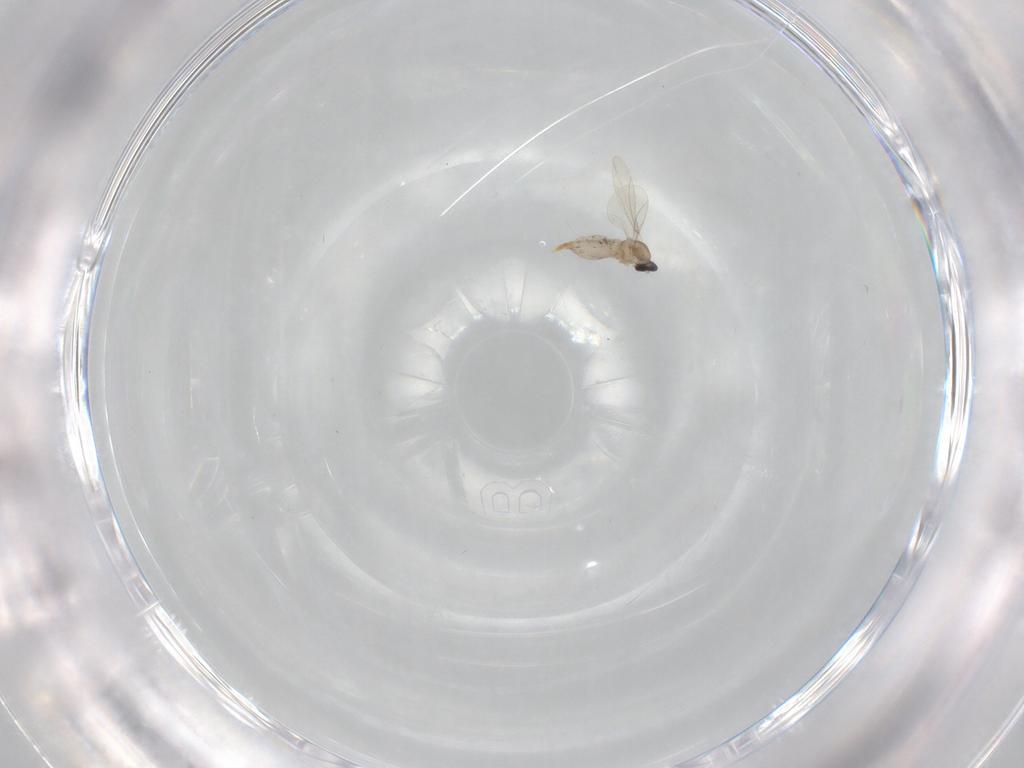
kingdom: Animalia
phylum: Arthropoda
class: Insecta
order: Diptera
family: Cecidomyiidae
